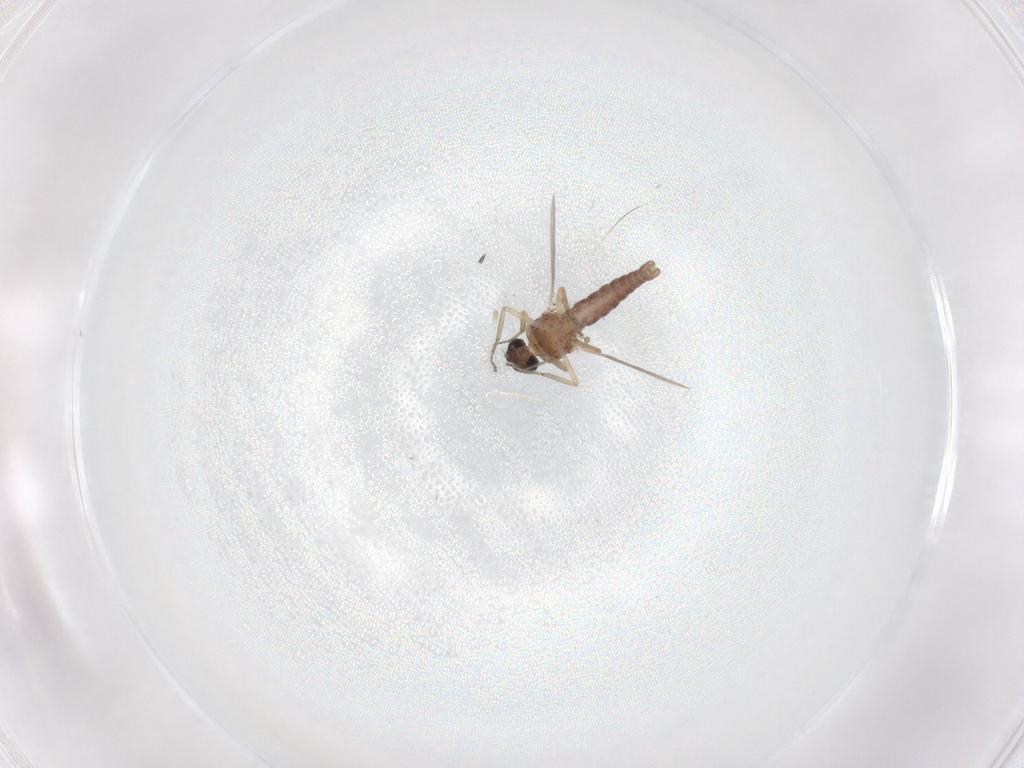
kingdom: Animalia
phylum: Arthropoda
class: Insecta
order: Diptera
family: Ceratopogonidae
